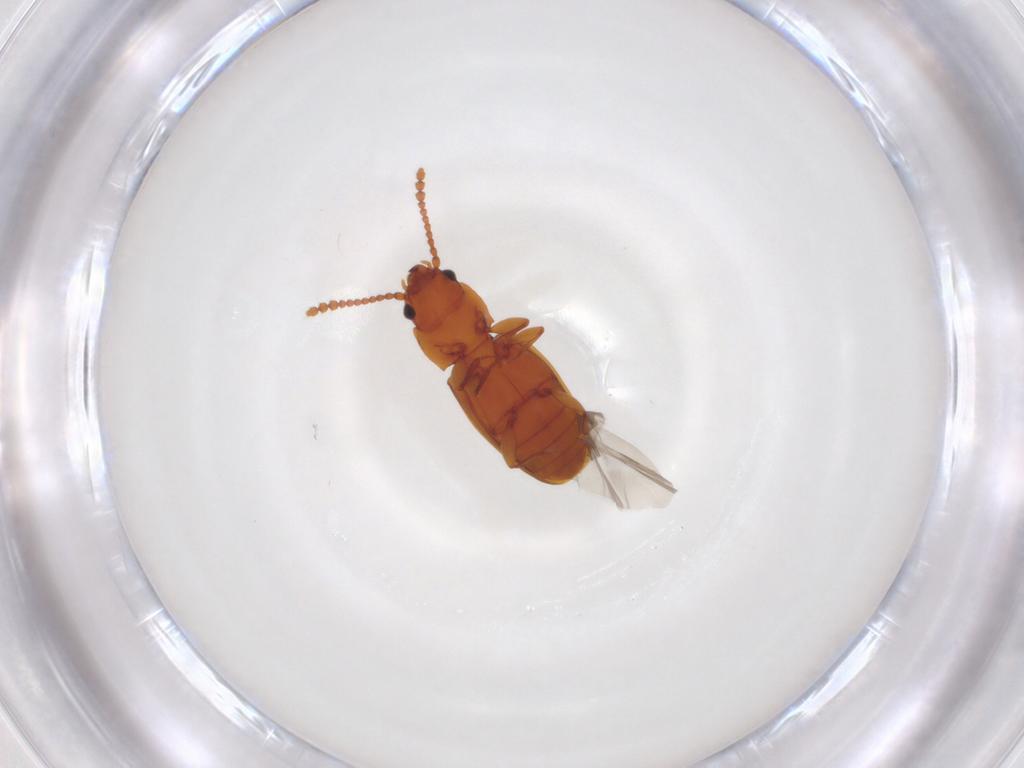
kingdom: Animalia
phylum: Arthropoda
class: Insecta
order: Coleoptera
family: Laemophloeidae
